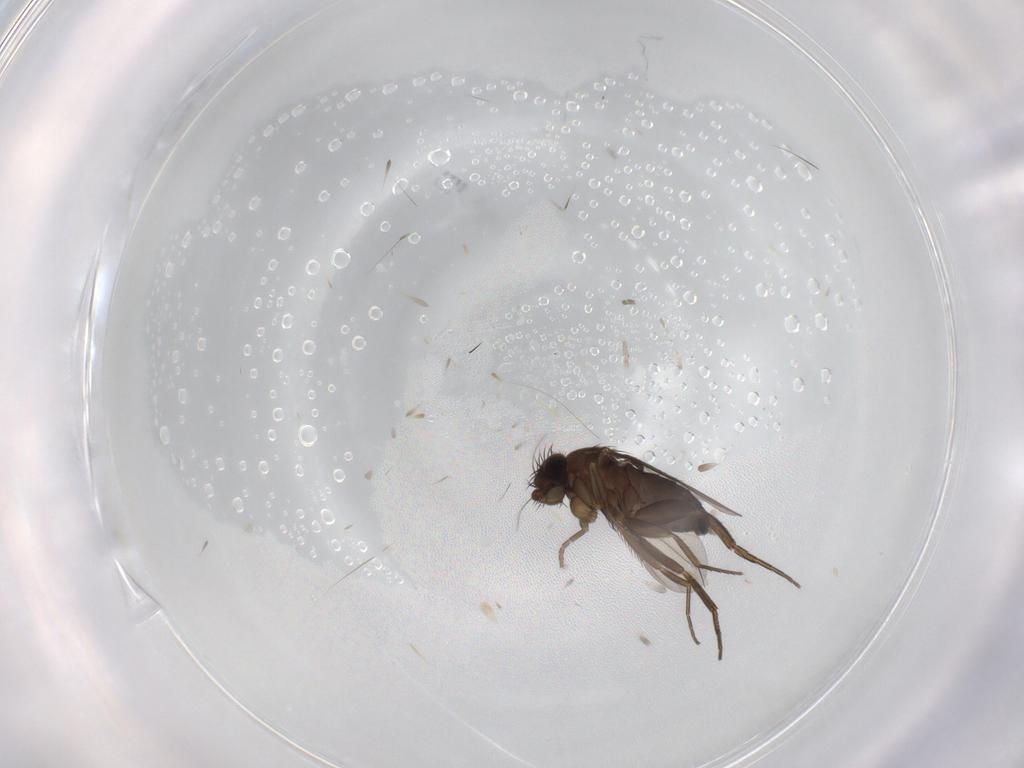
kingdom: Animalia
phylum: Arthropoda
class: Insecta
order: Diptera
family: Phoridae
